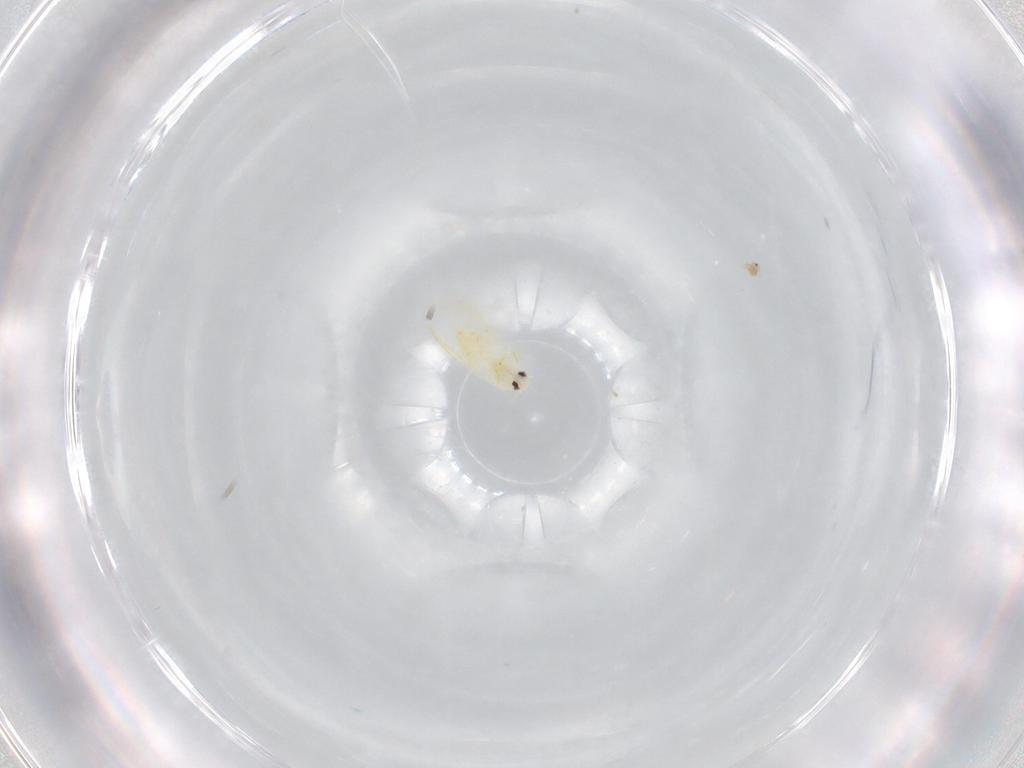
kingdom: Animalia
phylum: Arthropoda
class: Insecta
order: Hemiptera
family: Aleyrodidae
